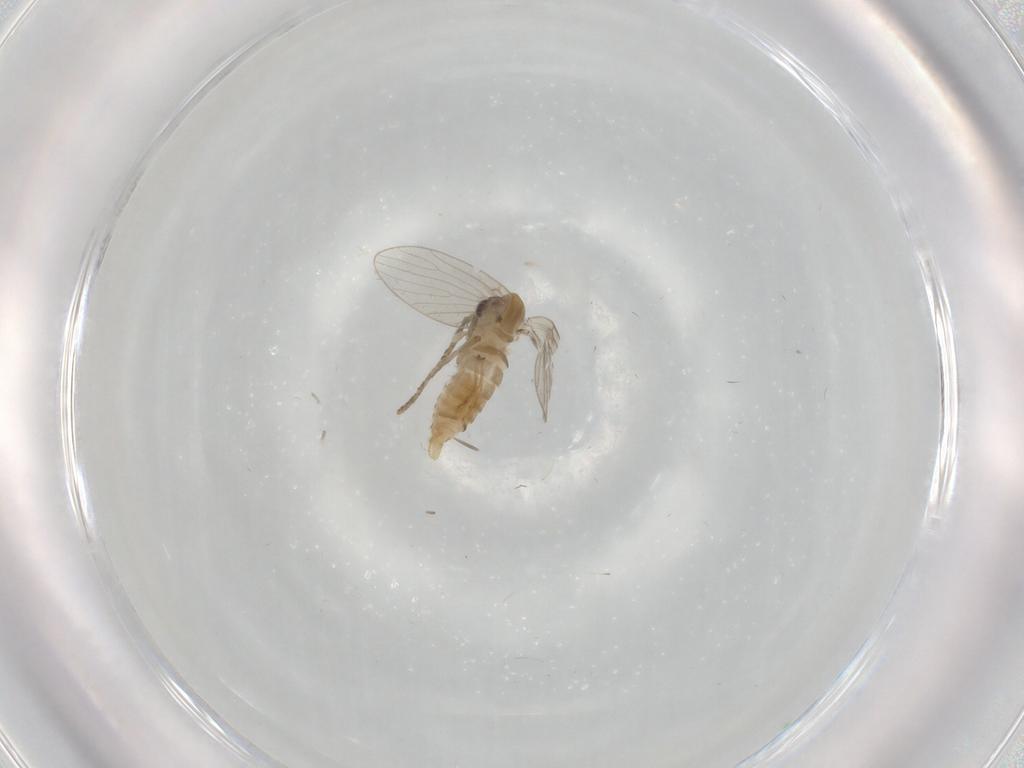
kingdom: Animalia
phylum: Arthropoda
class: Insecta
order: Diptera
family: Psychodidae
